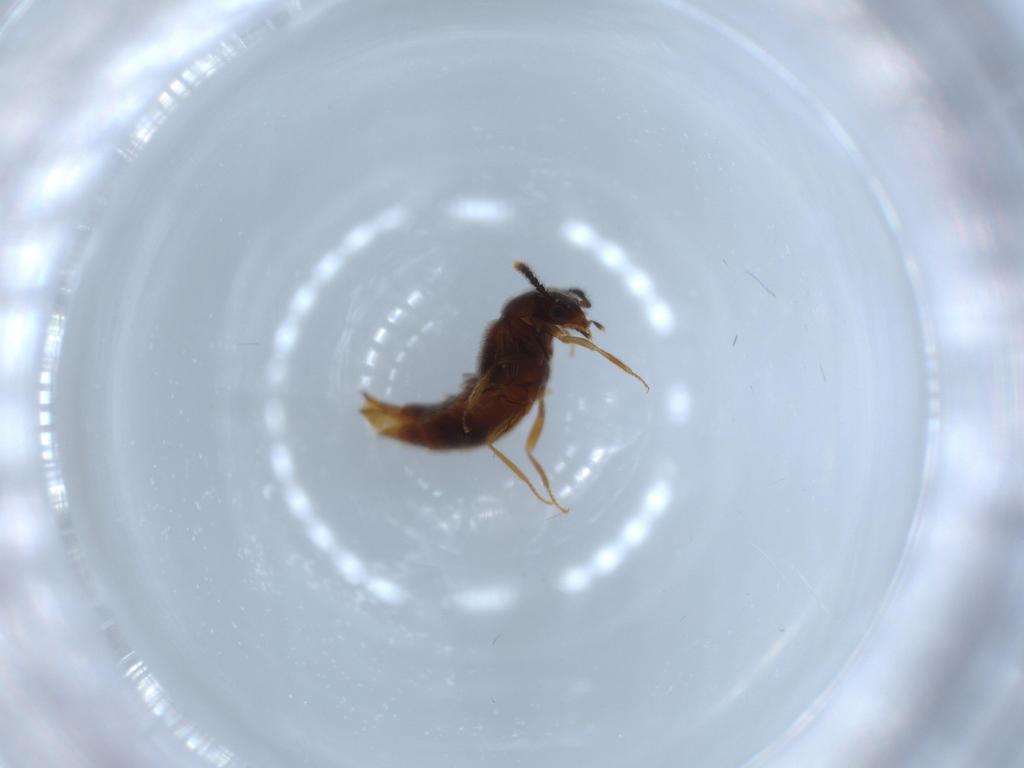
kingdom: Animalia
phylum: Arthropoda
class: Insecta
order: Coleoptera
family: Staphylinidae
